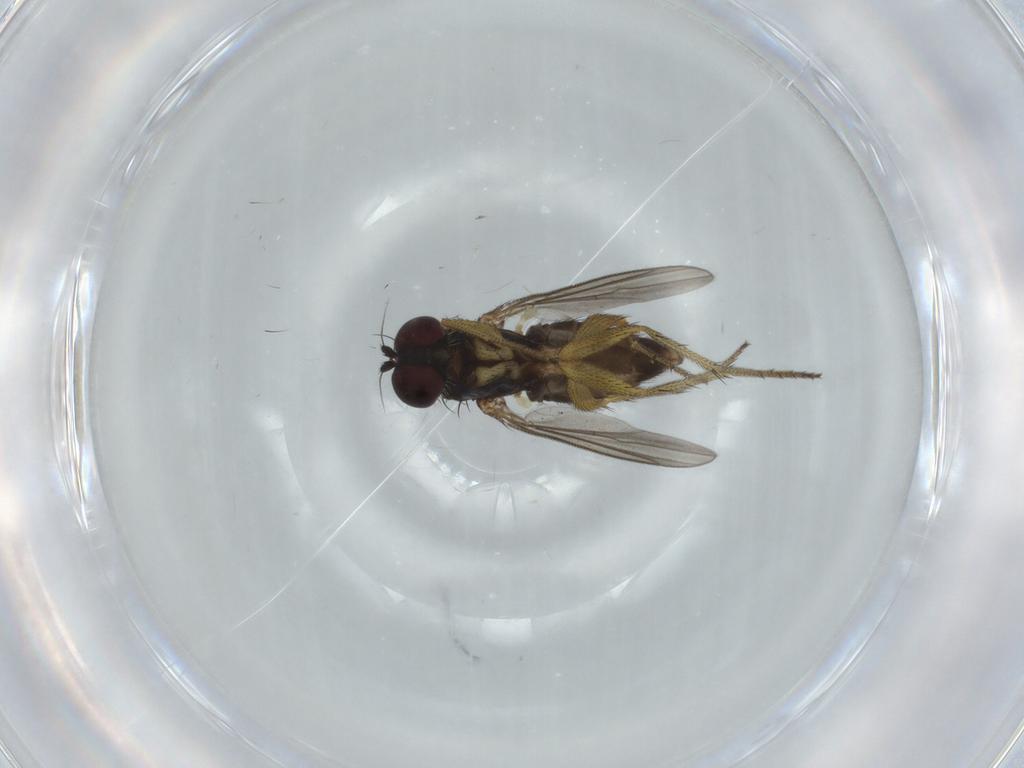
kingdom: Animalia
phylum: Arthropoda
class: Insecta
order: Diptera
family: Dolichopodidae
